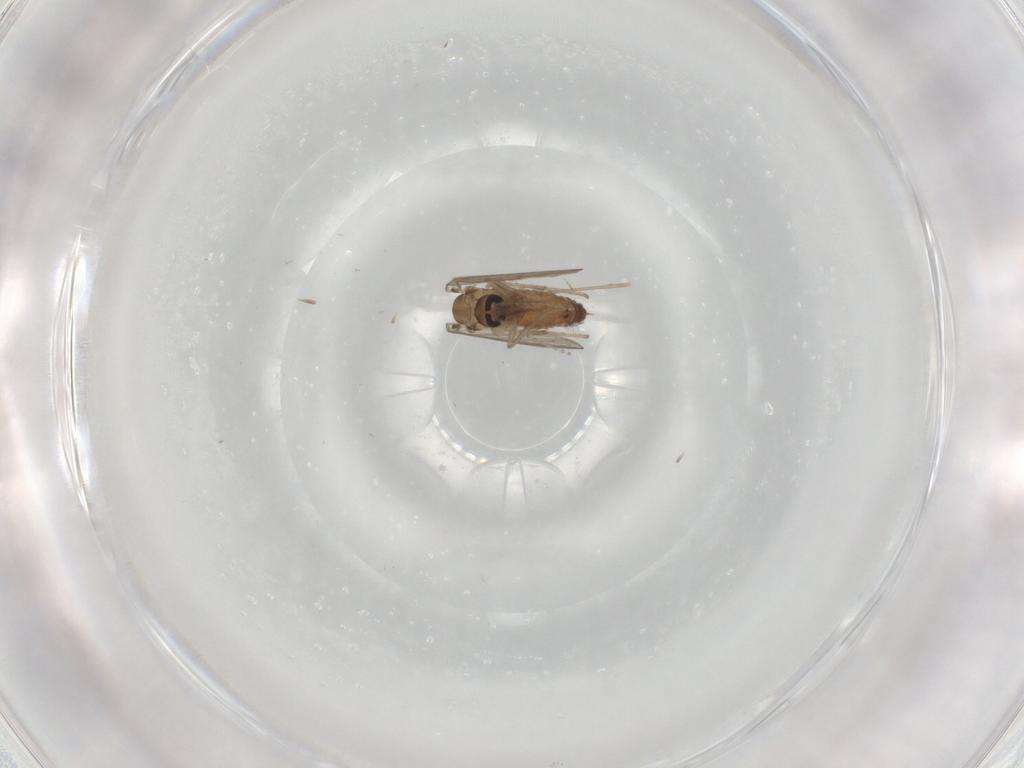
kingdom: Animalia
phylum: Arthropoda
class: Insecta
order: Diptera
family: Psychodidae
